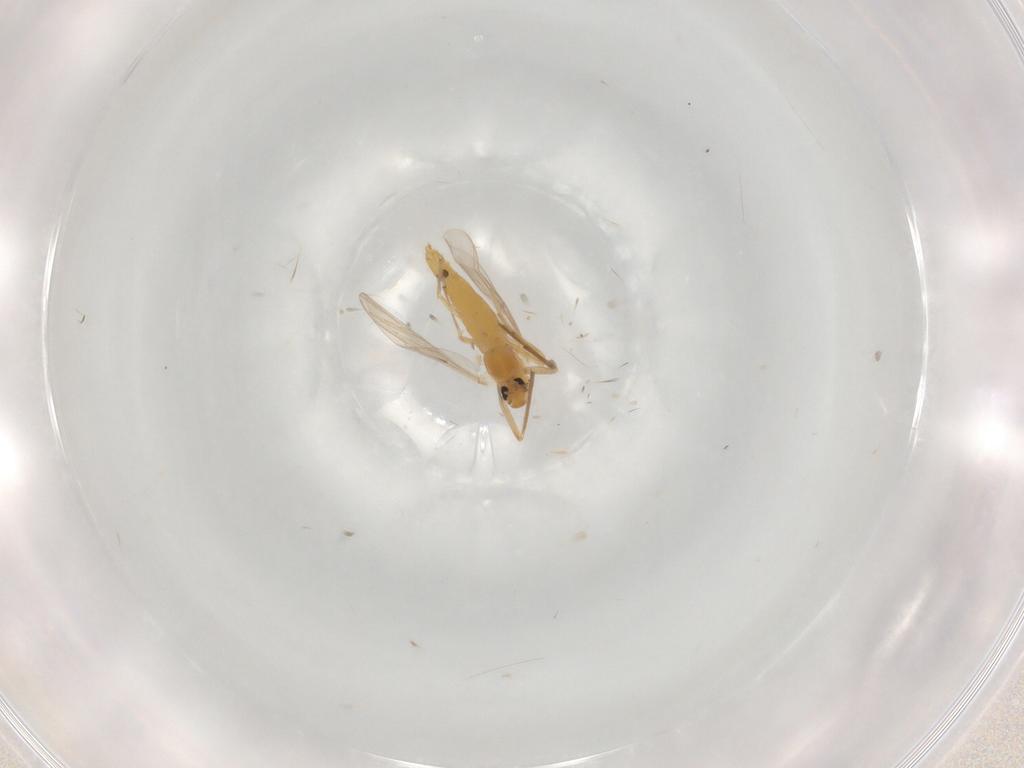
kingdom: Animalia
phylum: Arthropoda
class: Insecta
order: Diptera
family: Chironomidae
